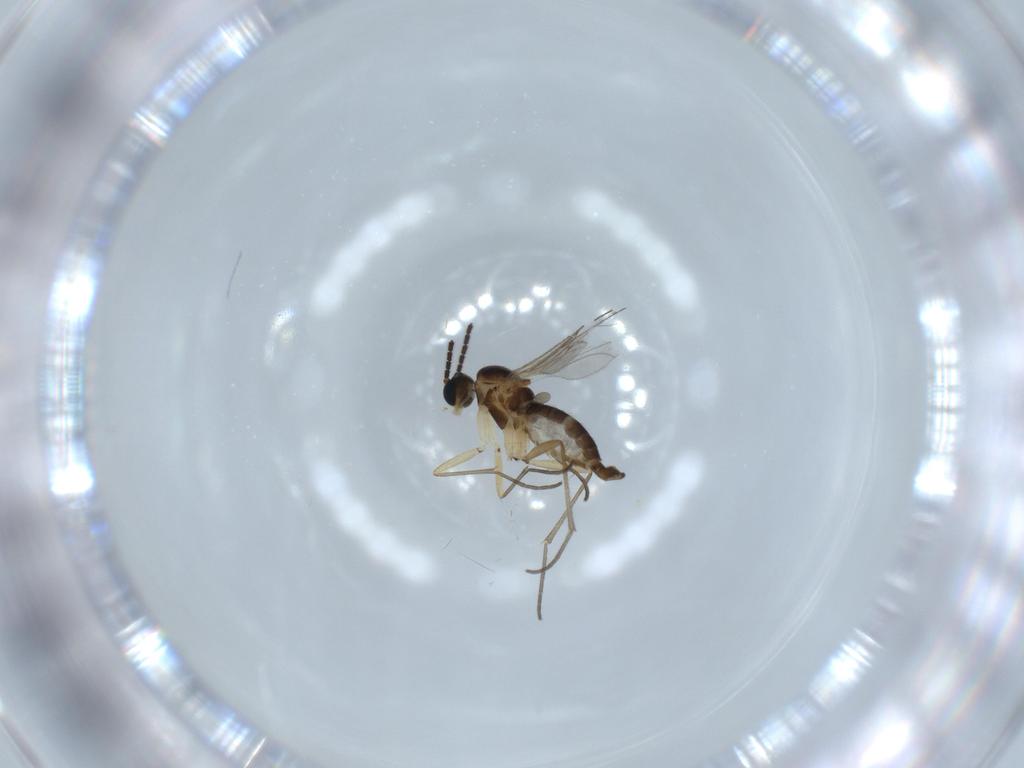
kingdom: Animalia
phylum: Arthropoda
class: Insecta
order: Diptera
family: Sciaridae
